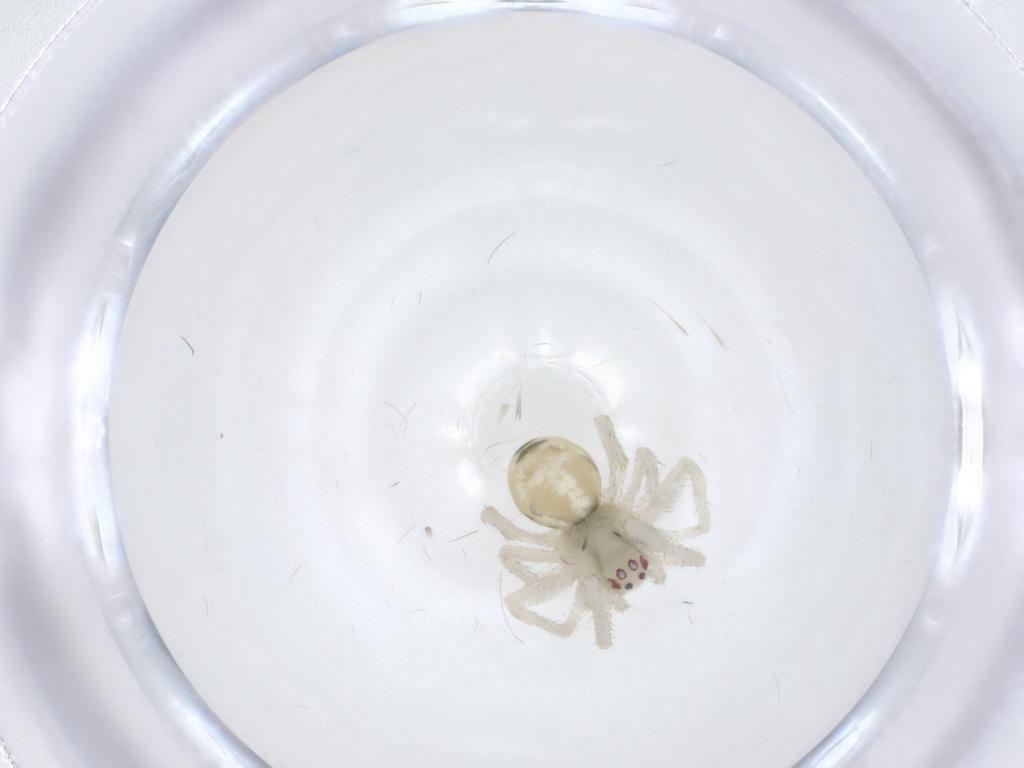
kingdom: Animalia
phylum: Arthropoda
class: Arachnida
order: Araneae
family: Theridiidae
